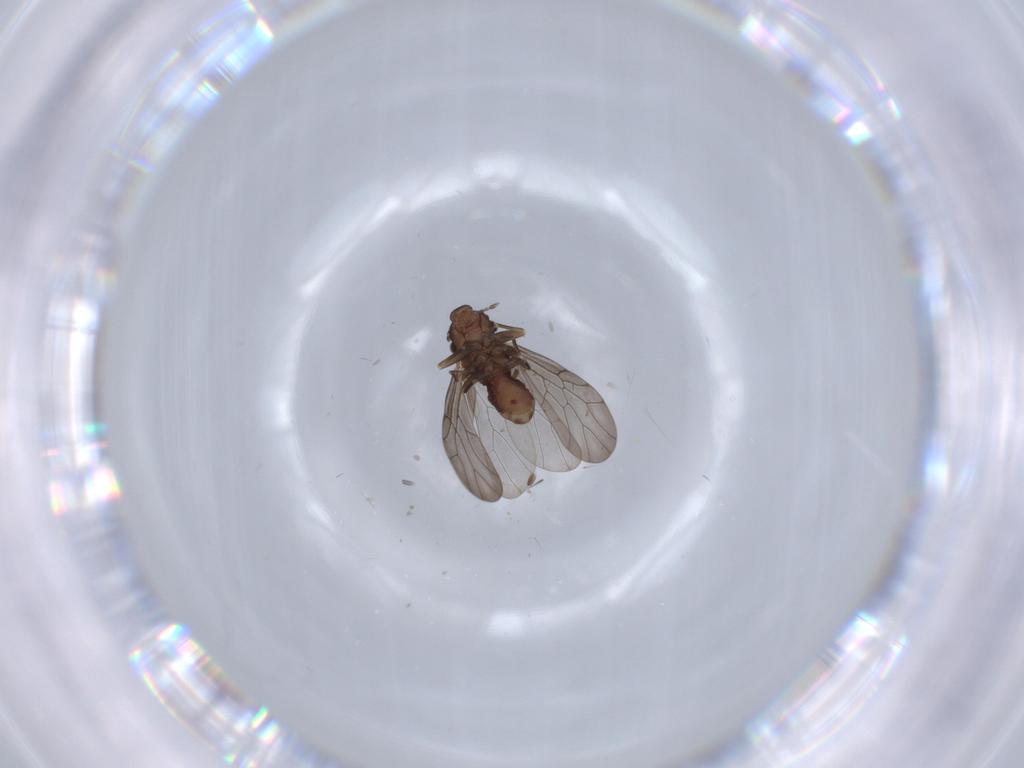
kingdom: Animalia
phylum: Arthropoda
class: Insecta
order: Psocodea
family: Lepidopsocidae
